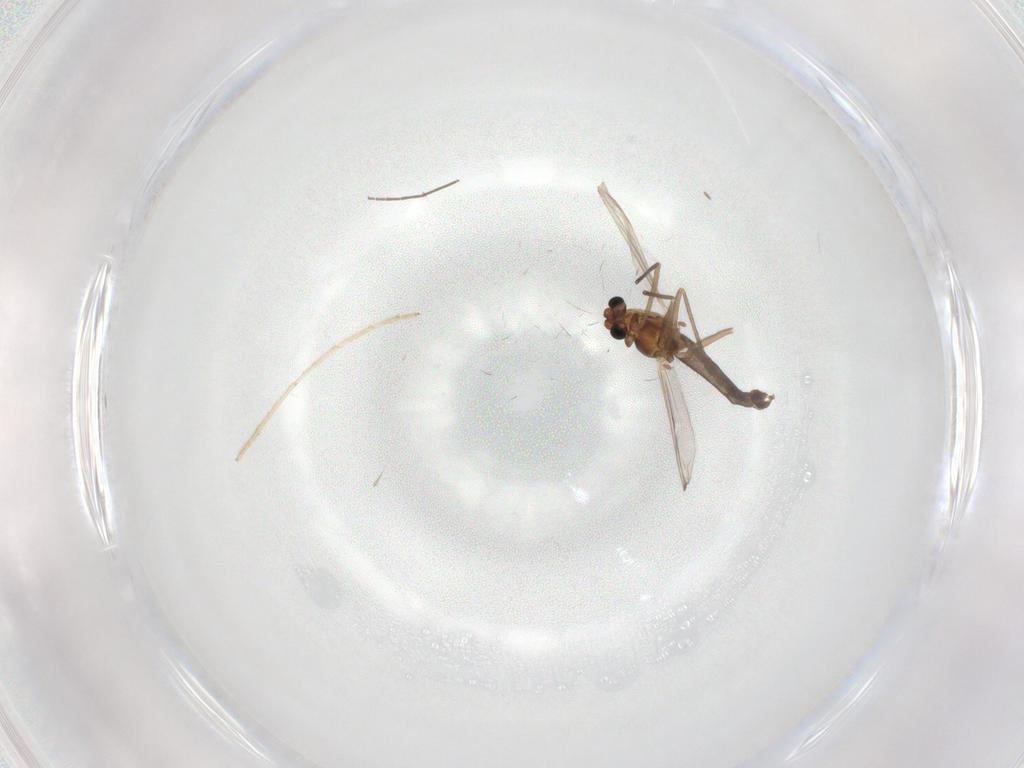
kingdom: Animalia
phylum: Arthropoda
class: Insecta
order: Diptera
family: Chironomidae
